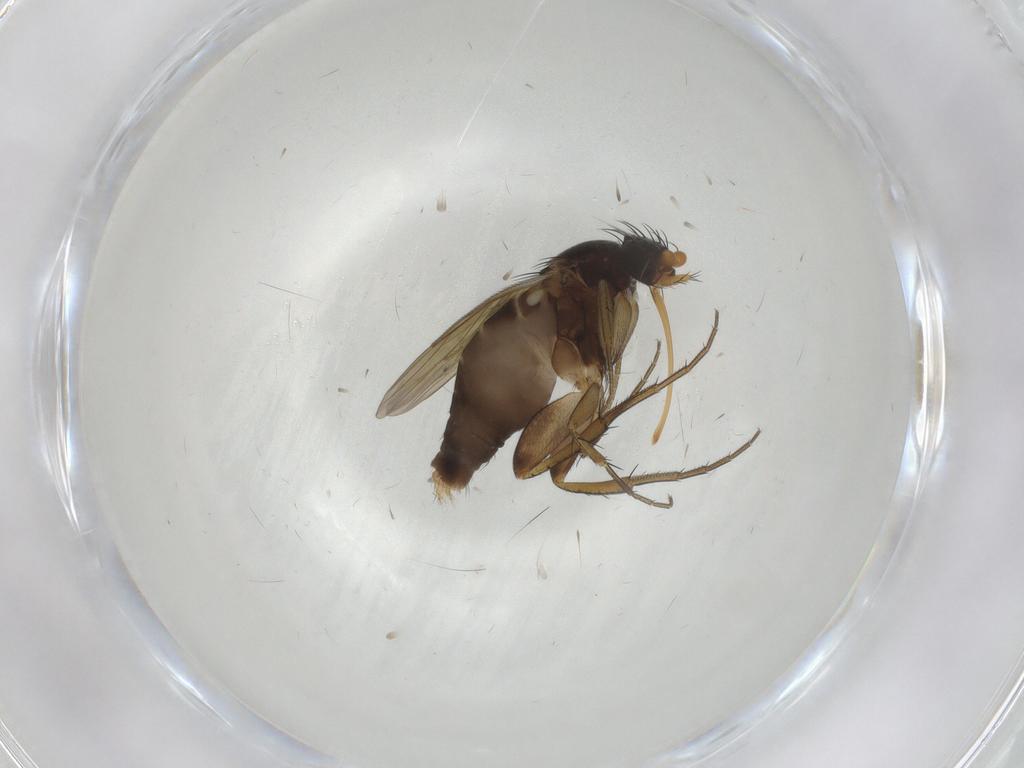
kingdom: Animalia
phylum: Arthropoda
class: Insecta
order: Diptera
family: Phoridae
